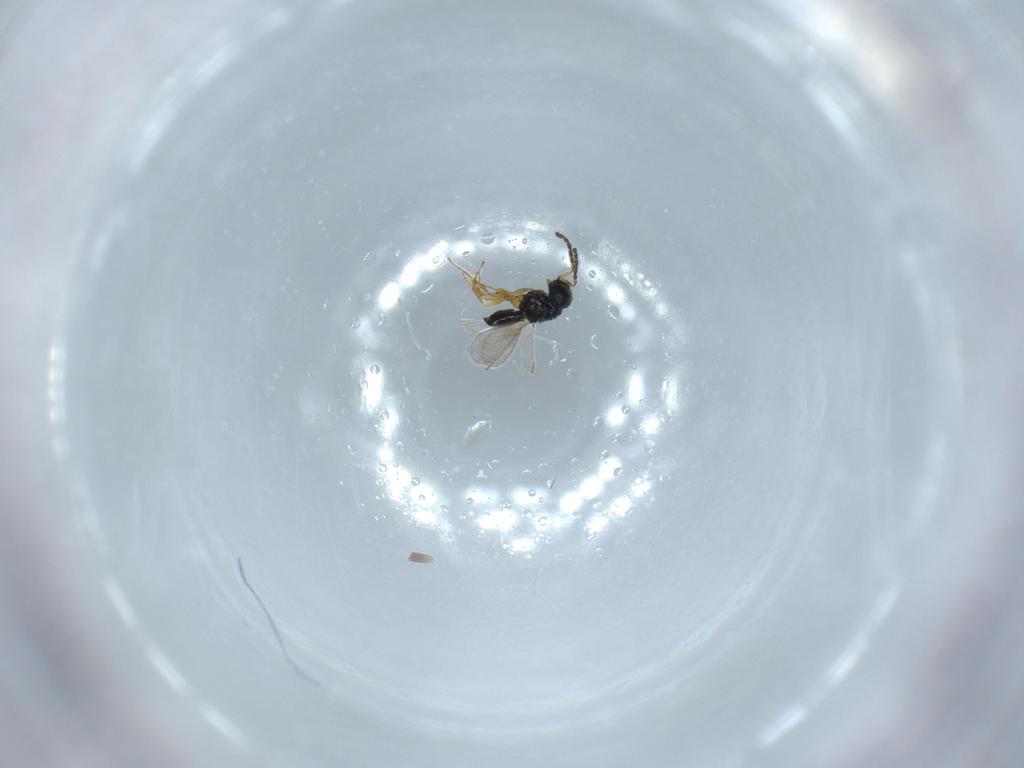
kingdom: Animalia
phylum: Arthropoda
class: Insecta
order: Hymenoptera
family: Scelionidae
